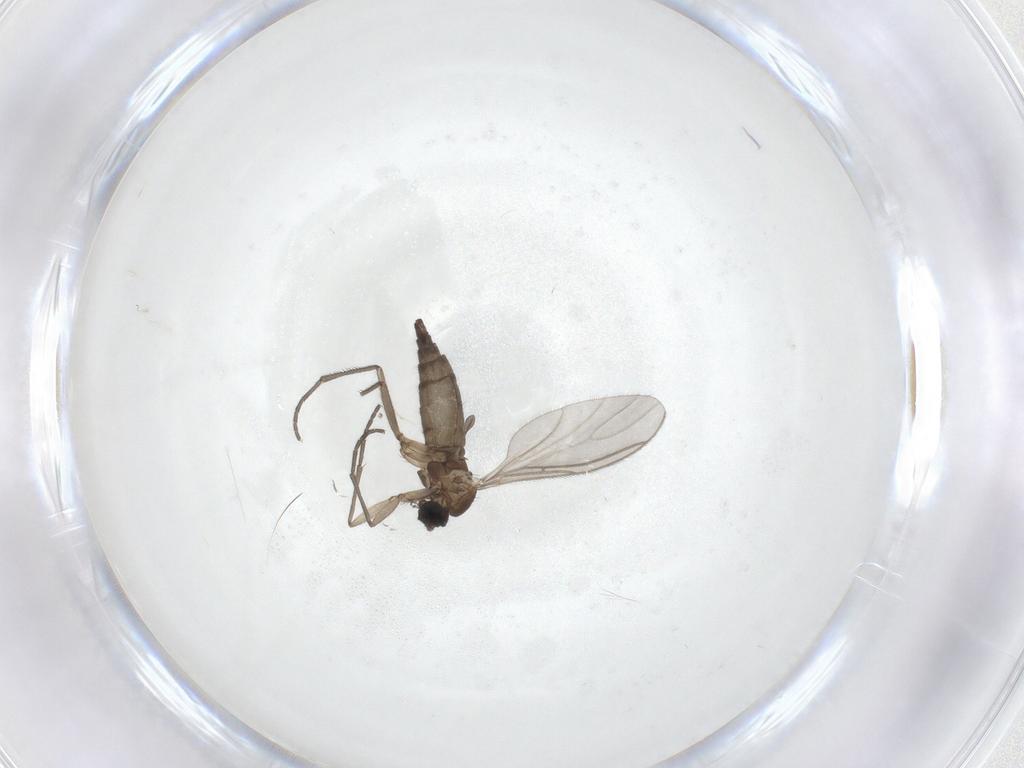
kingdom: Animalia
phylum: Arthropoda
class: Insecta
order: Diptera
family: Sciaridae
